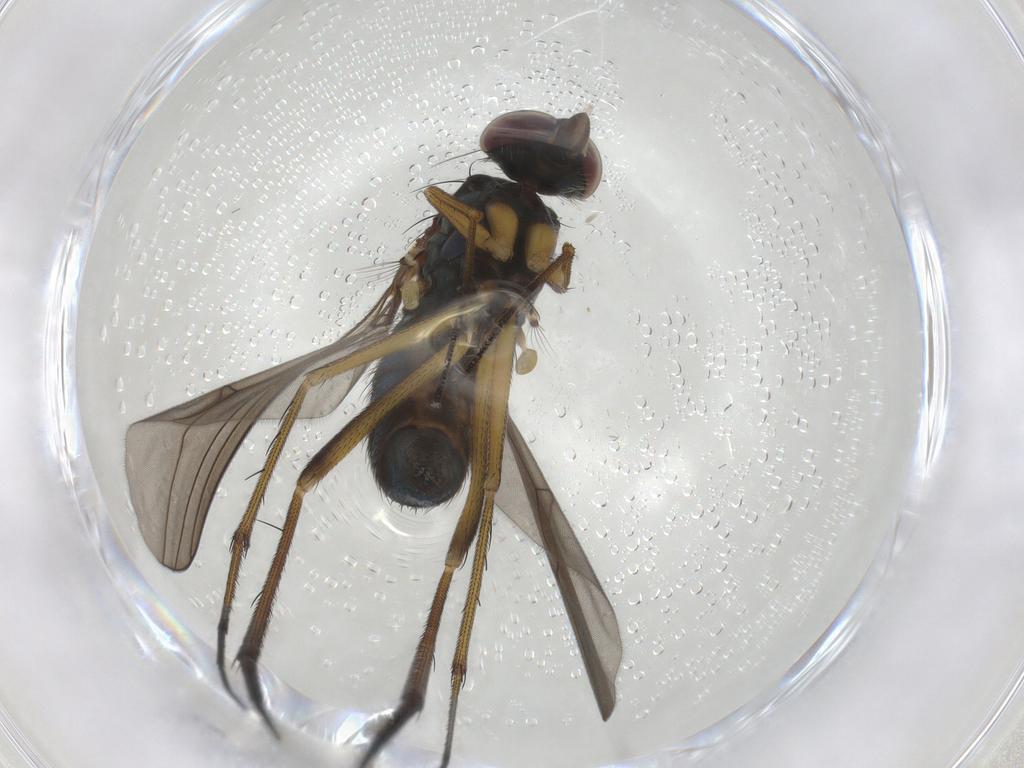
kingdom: Animalia
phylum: Arthropoda
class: Insecta
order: Diptera
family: Dolichopodidae
